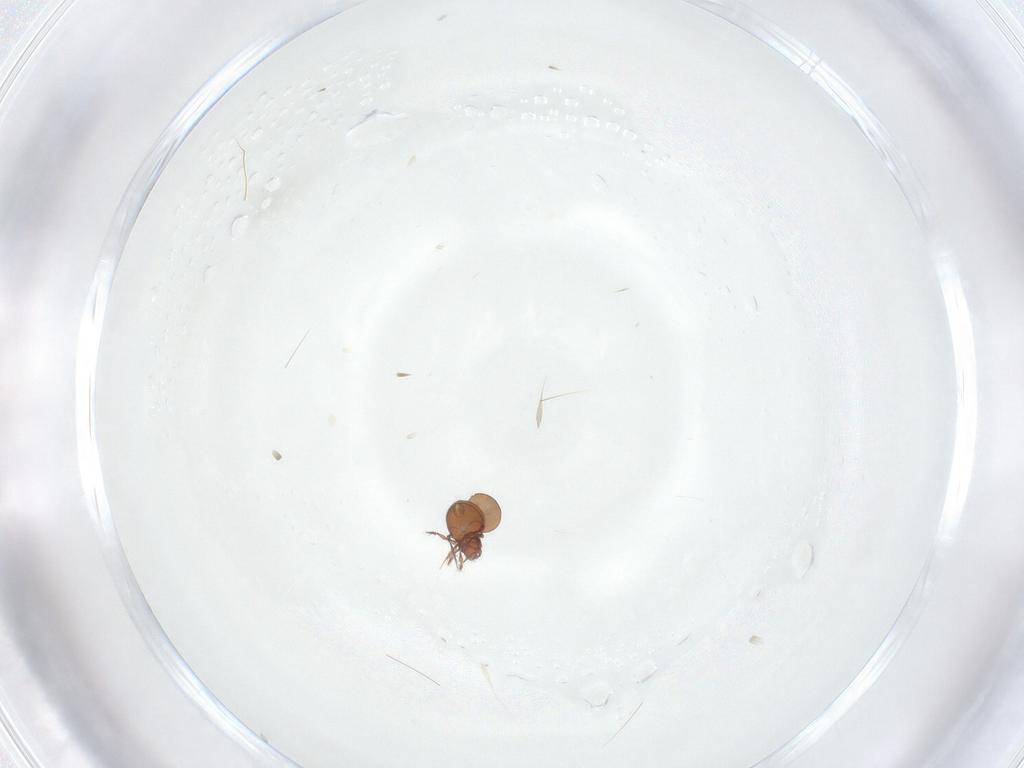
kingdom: Animalia
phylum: Arthropoda
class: Arachnida
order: Sarcoptiformes
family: Oppiidae
